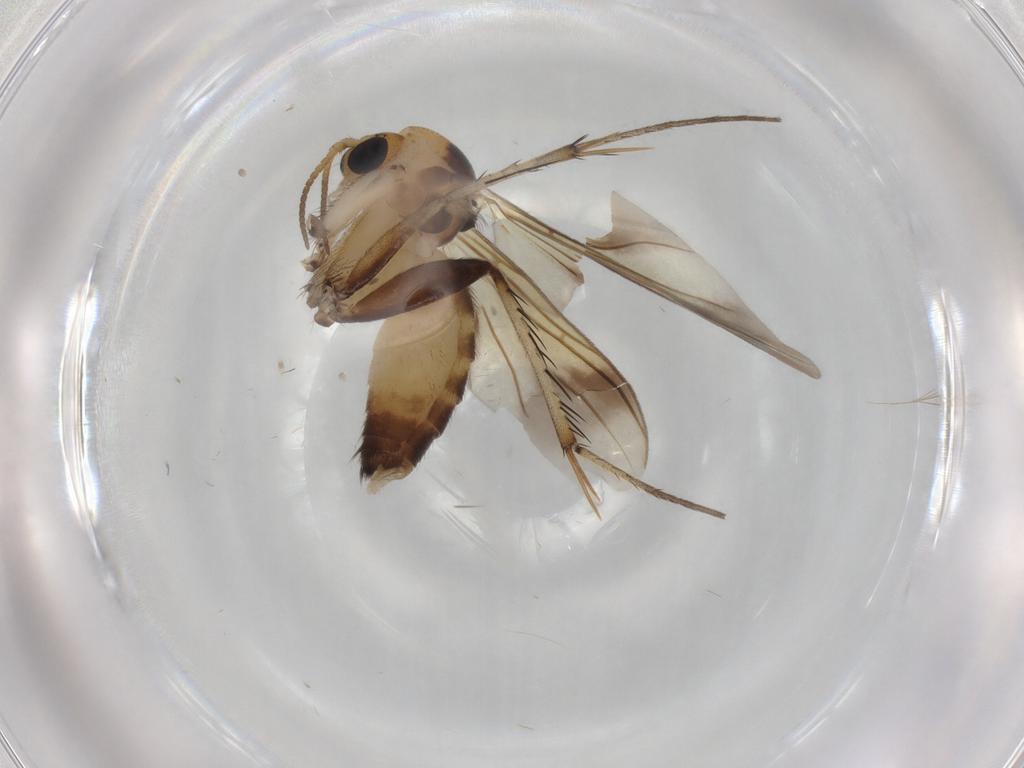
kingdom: Animalia
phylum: Arthropoda
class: Insecta
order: Diptera
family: Mycetophilidae
